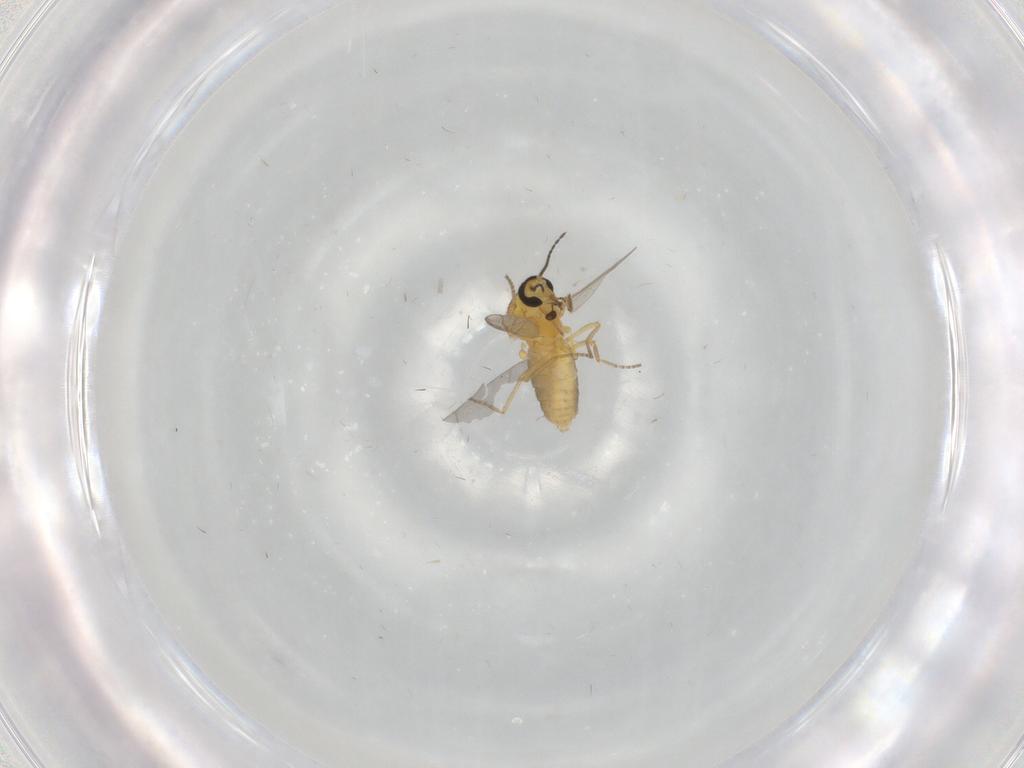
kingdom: Animalia
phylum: Arthropoda
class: Insecta
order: Diptera
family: Dolichopodidae
